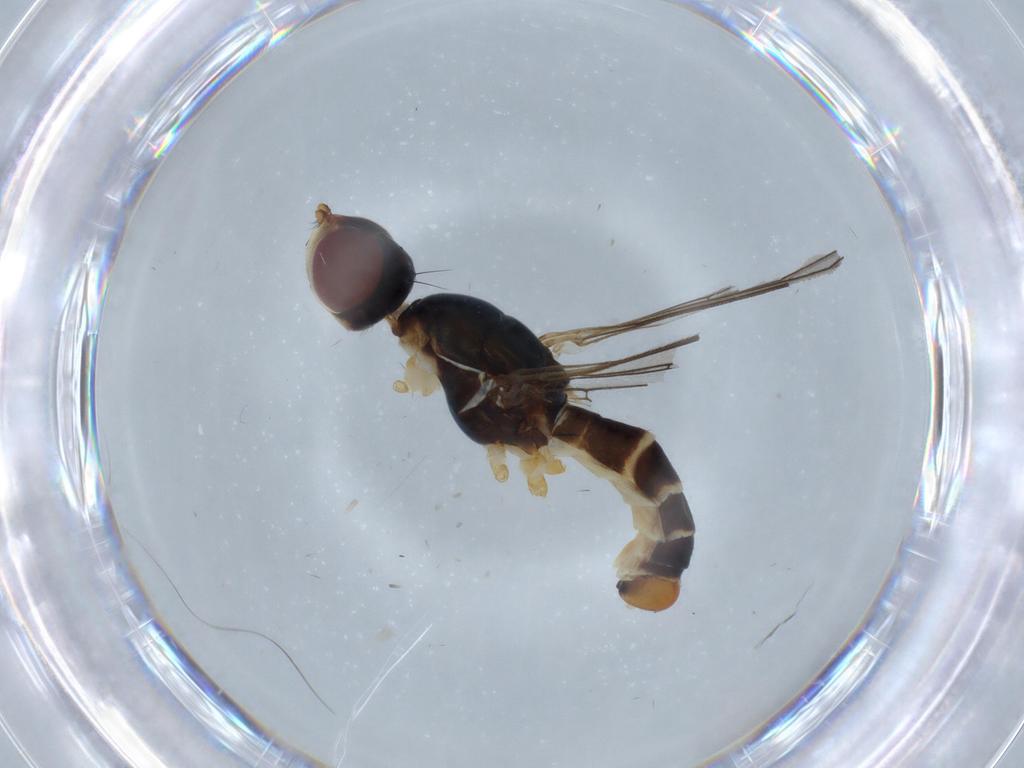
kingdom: Animalia
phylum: Arthropoda
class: Insecta
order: Diptera
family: Micropezidae
